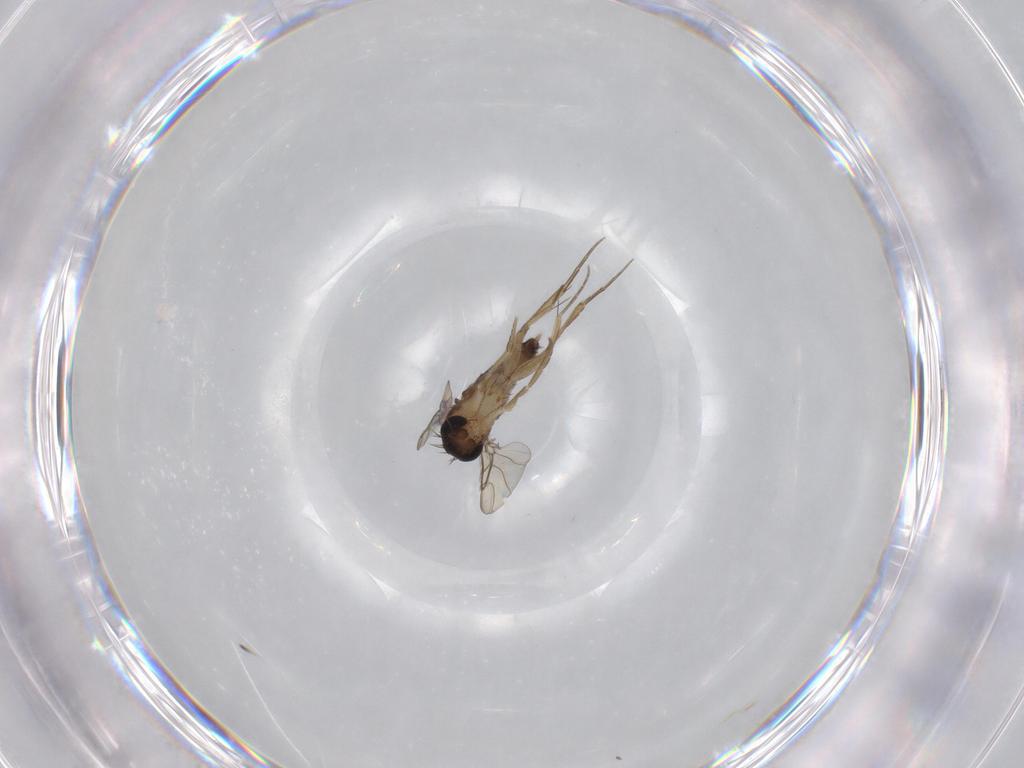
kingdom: Animalia
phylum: Arthropoda
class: Insecta
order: Diptera
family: Phoridae
